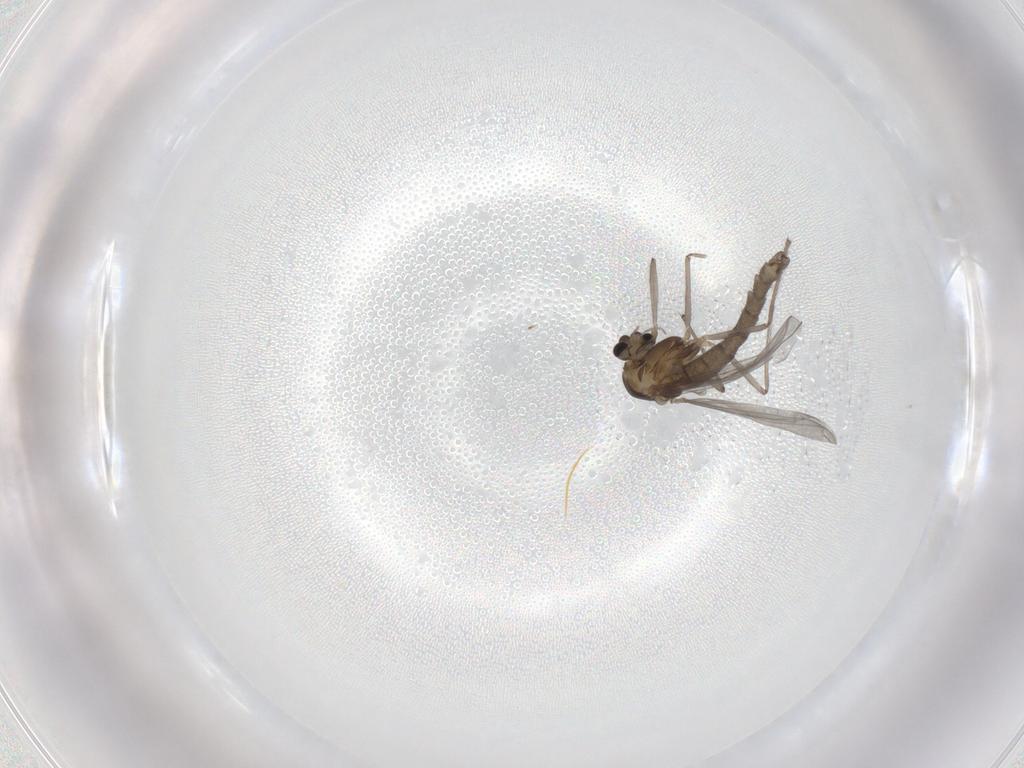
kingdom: Animalia
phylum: Arthropoda
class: Insecta
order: Diptera
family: Chironomidae
